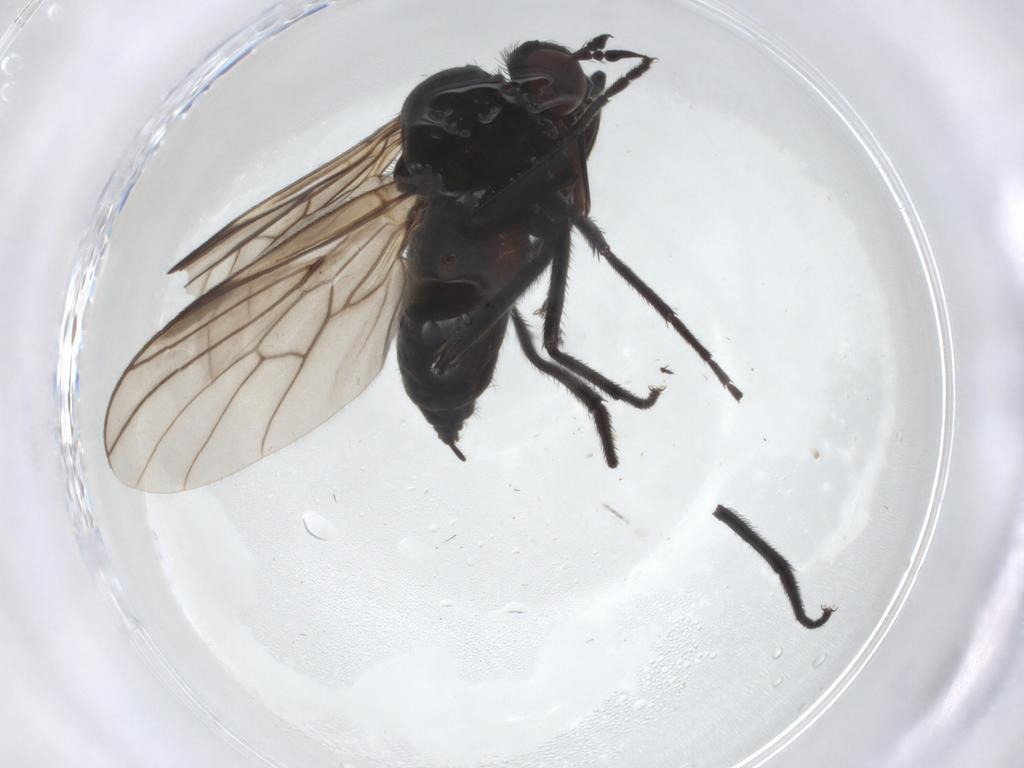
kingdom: Animalia
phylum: Arthropoda
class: Insecta
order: Diptera
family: Empididae
